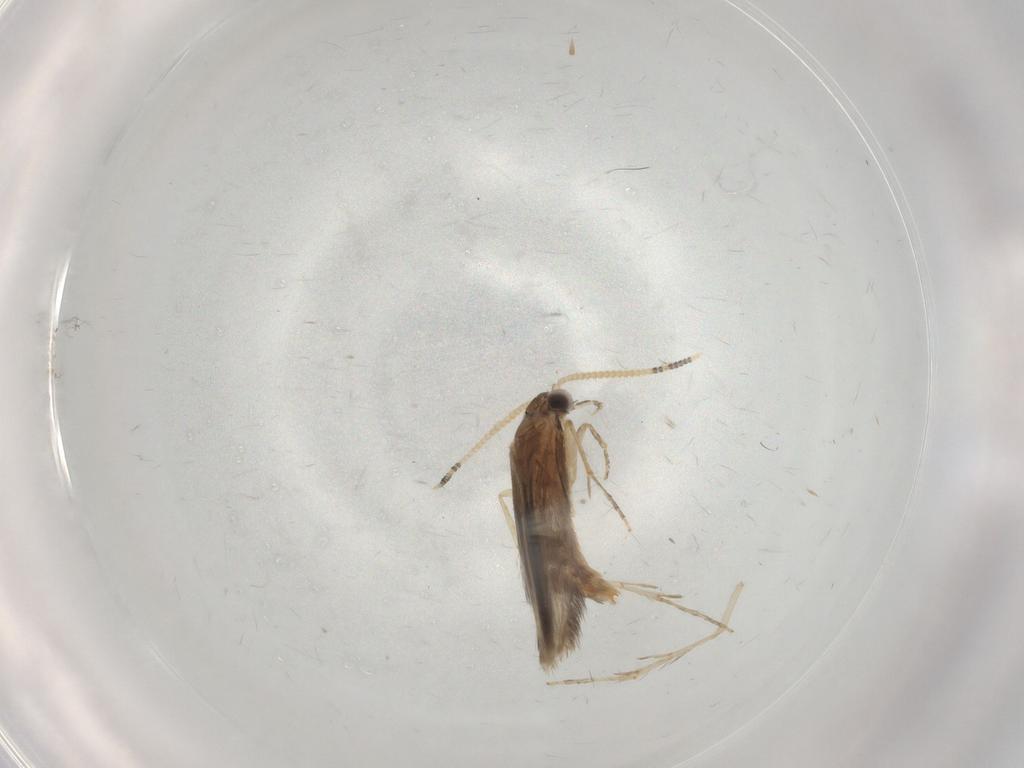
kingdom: Animalia
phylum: Arthropoda
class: Insecta
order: Trichoptera
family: Hydroptilidae
